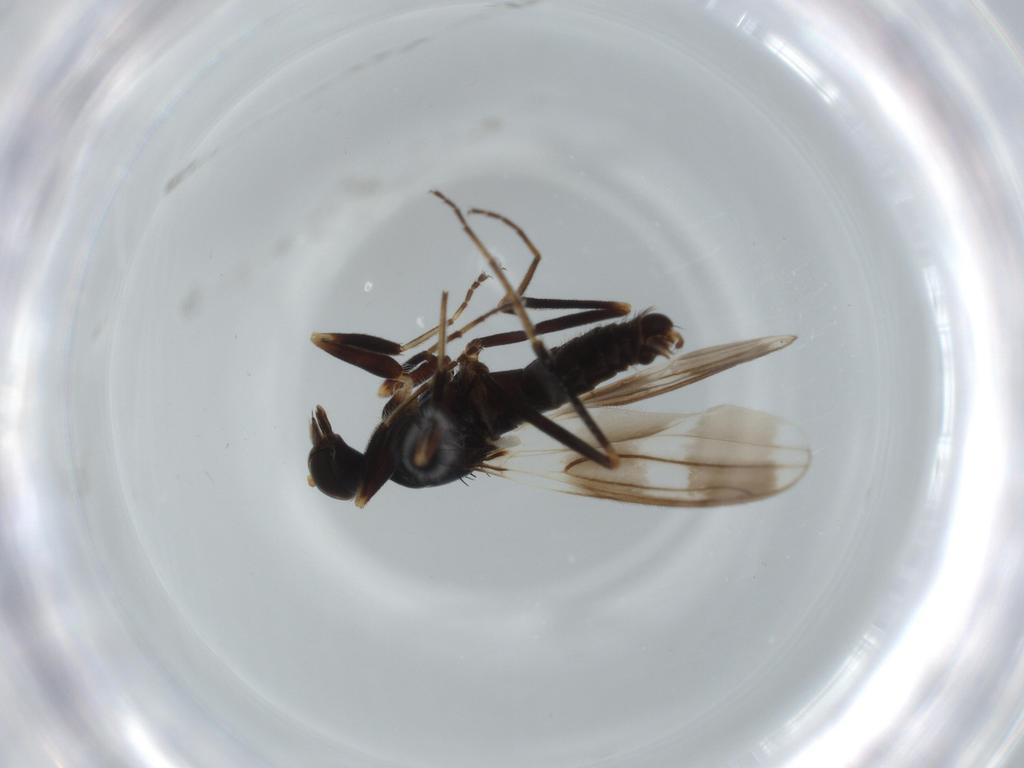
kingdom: Animalia
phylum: Arthropoda
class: Insecta
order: Diptera
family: Hybotidae
